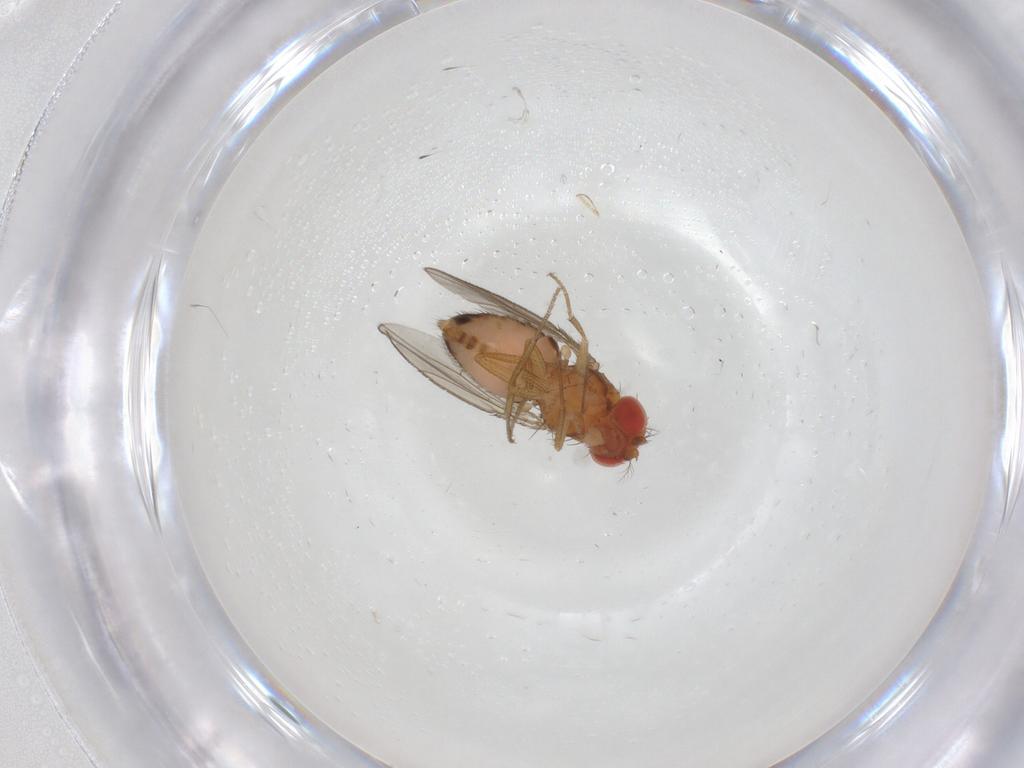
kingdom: Animalia
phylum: Arthropoda
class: Insecta
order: Diptera
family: Drosophilidae
